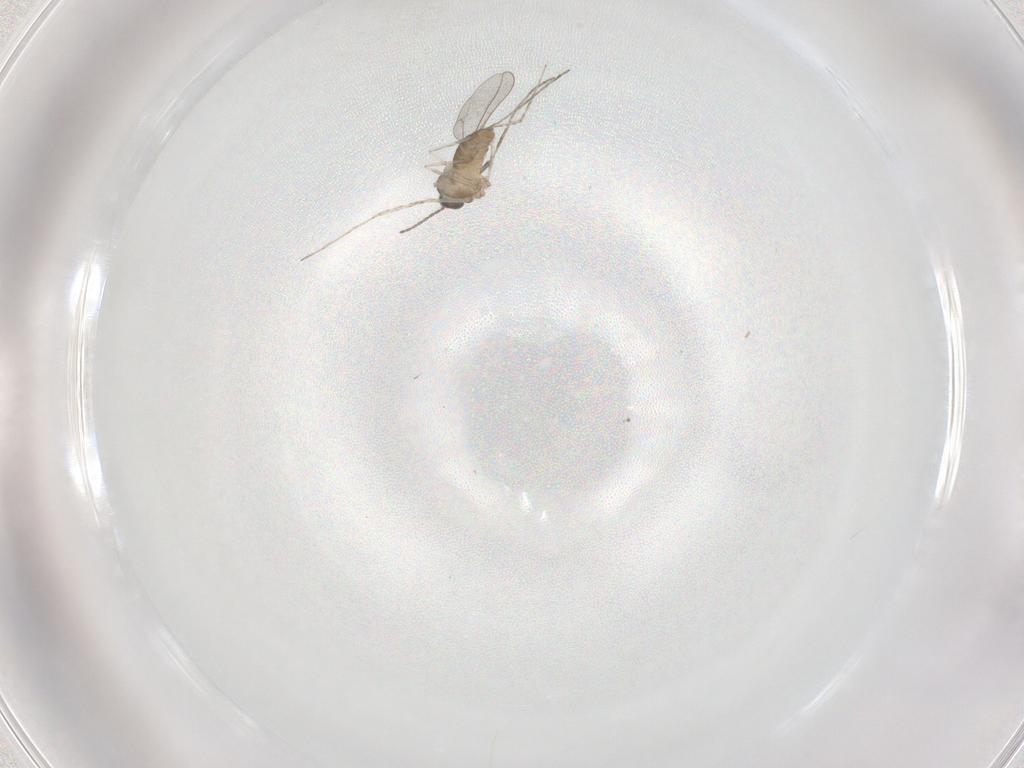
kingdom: Animalia
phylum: Arthropoda
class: Insecta
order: Diptera
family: Cecidomyiidae
